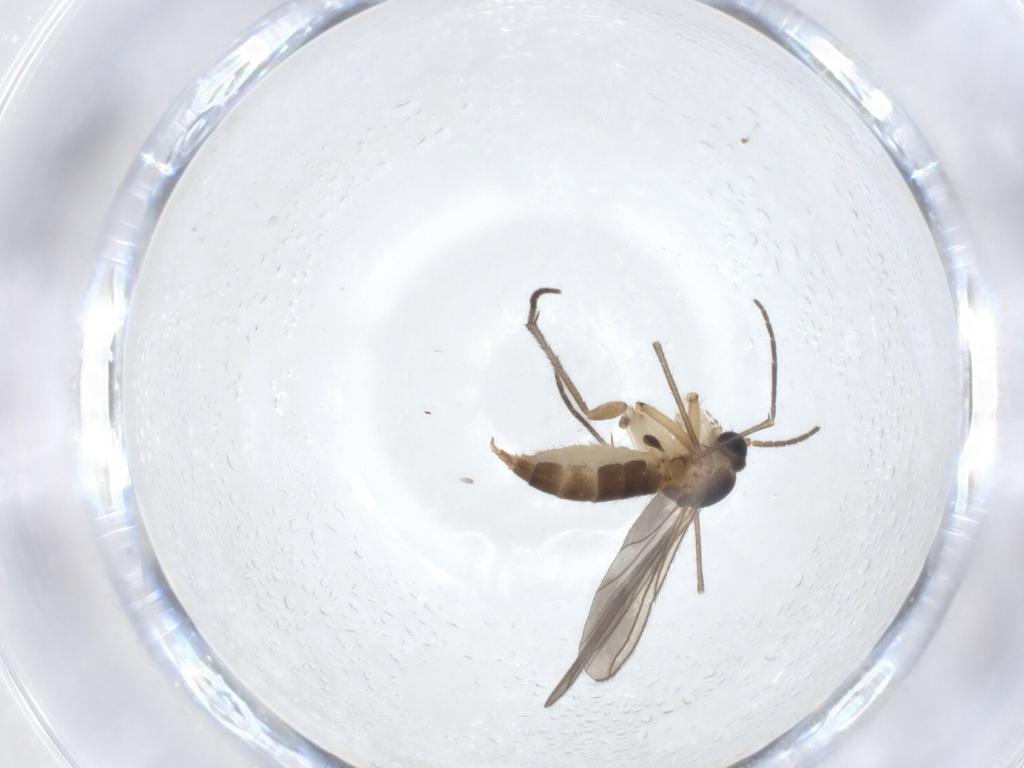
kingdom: Animalia
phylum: Arthropoda
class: Insecta
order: Diptera
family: Sciaridae
